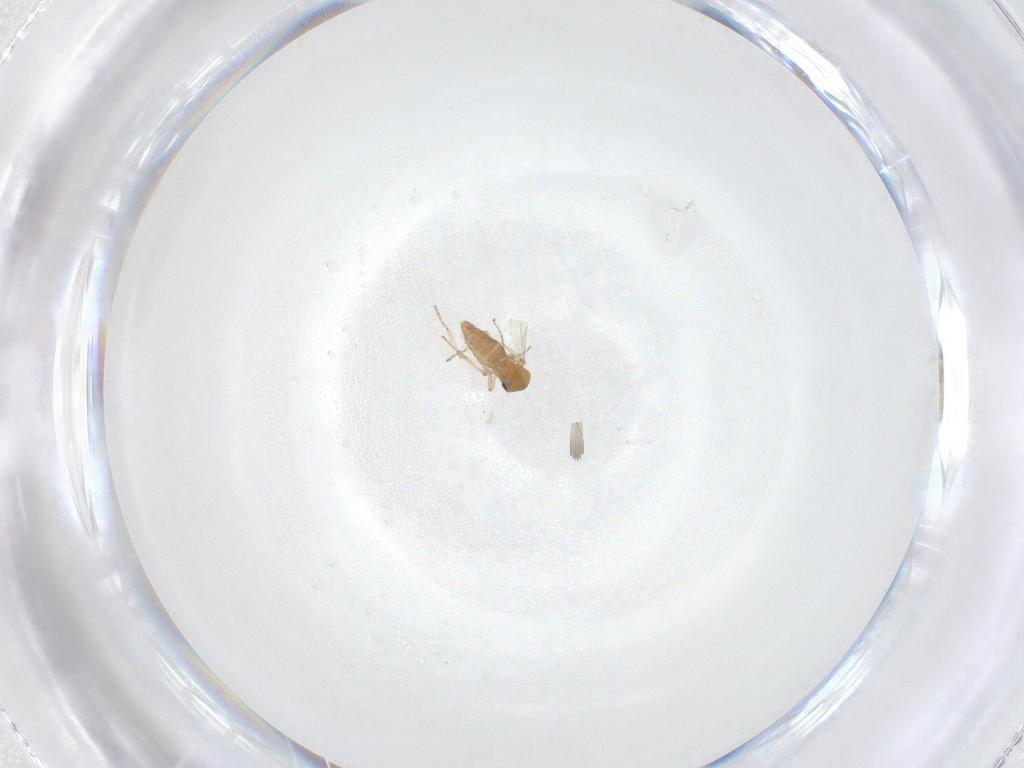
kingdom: Animalia
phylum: Arthropoda
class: Insecta
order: Diptera
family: Ceratopogonidae
